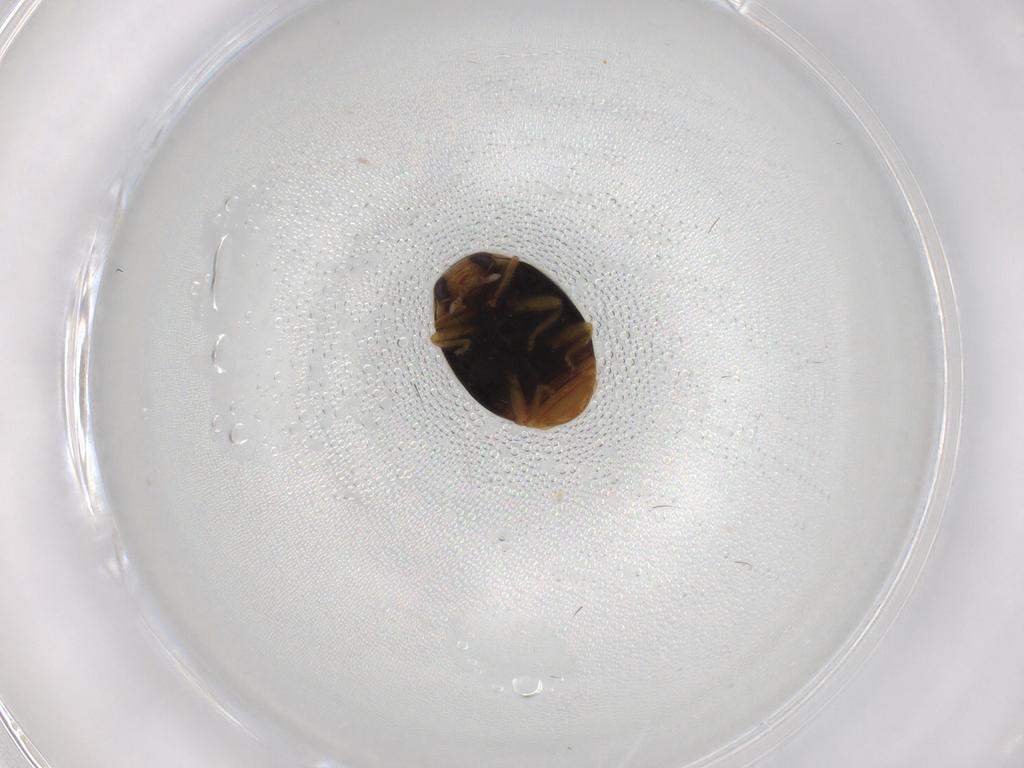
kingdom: Animalia
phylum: Arthropoda
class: Insecta
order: Coleoptera
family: Coccinellidae
